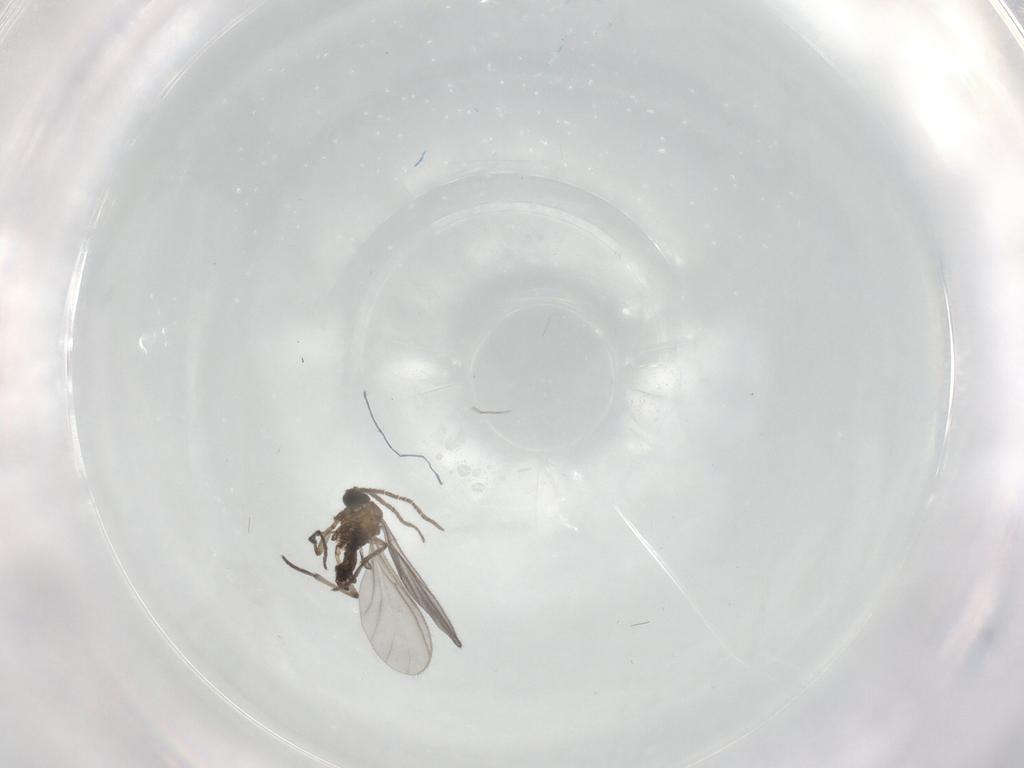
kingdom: Animalia
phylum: Arthropoda
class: Insecta
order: Diptera
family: Sciaridae
